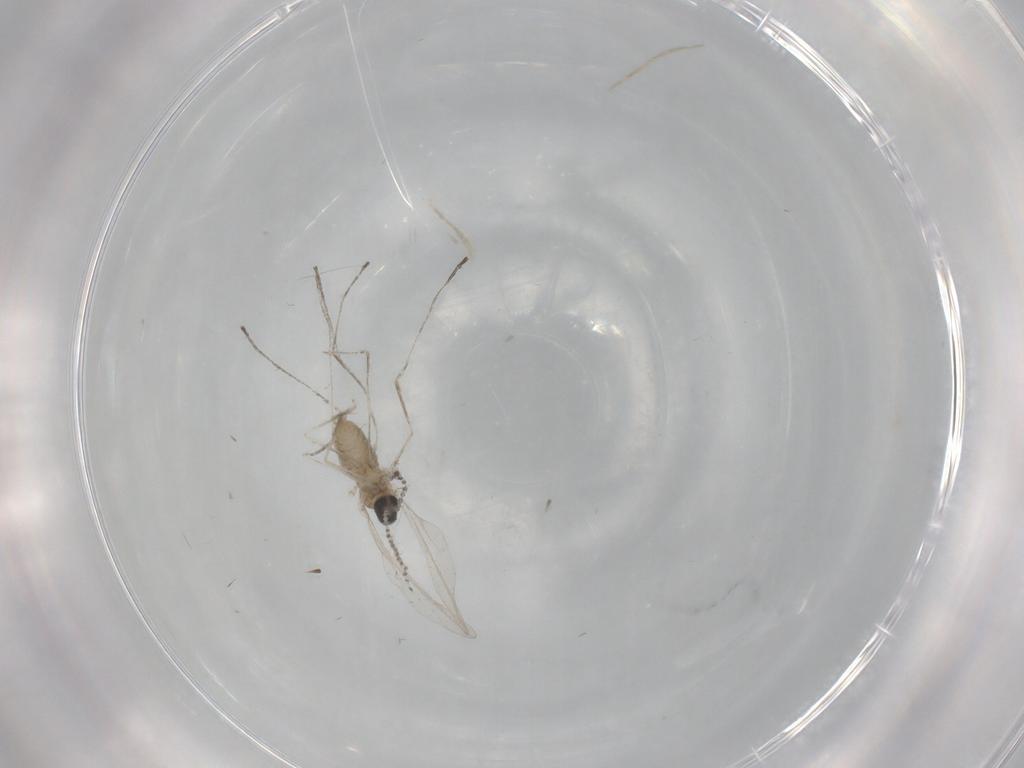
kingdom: Animalia
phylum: Arthropoda
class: Insecta
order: Diptera
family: Cecidomyiidae
